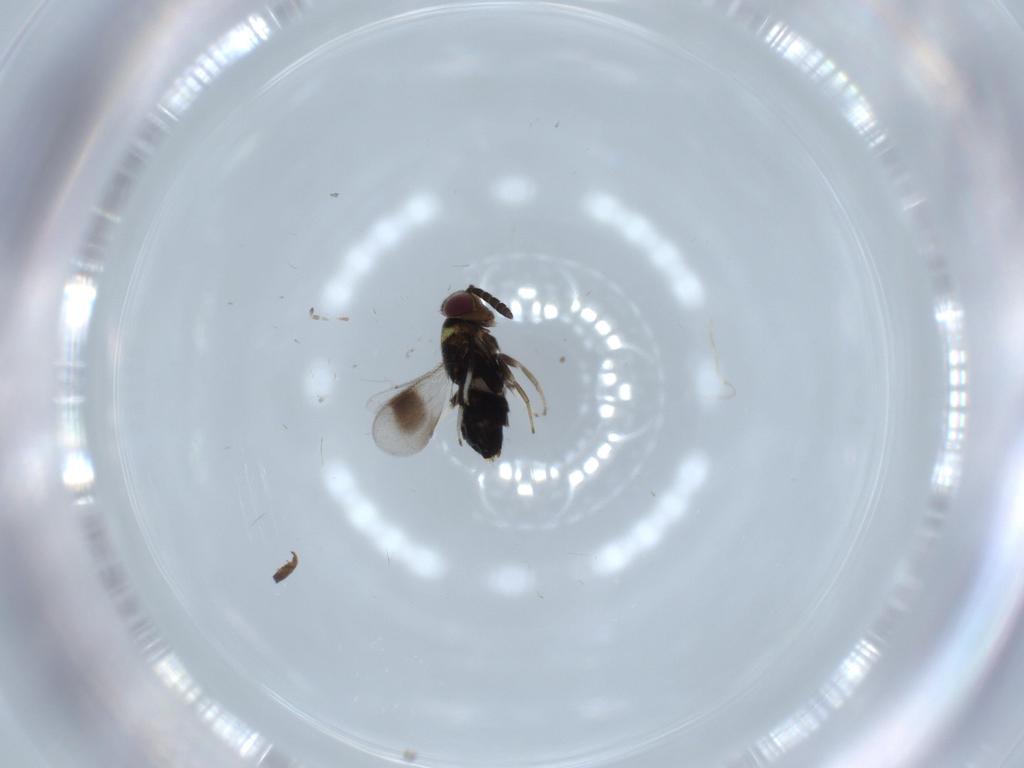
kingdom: Animalia
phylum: Arthropoda
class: Insecta
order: Hymenoptera
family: Aphelinidae
